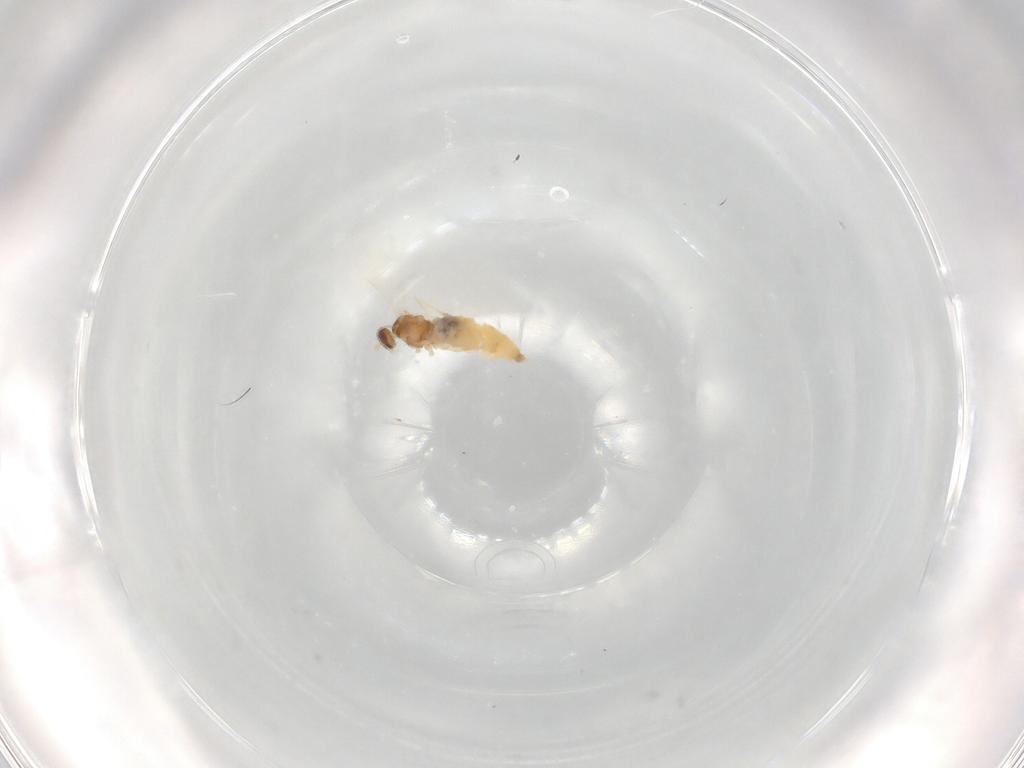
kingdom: Animalia
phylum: Arthropoda
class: Insecta
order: Diptera
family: Cecidomyiidae
